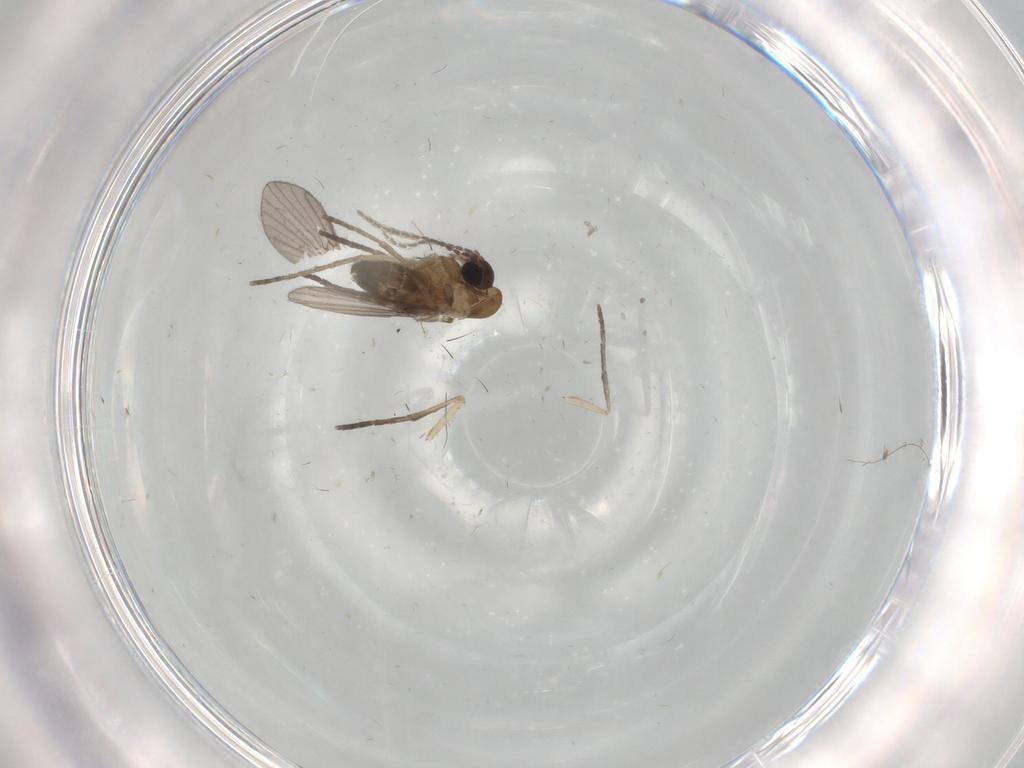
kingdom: Animalia
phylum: Arthropoda
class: Insecta
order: Diptera
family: Psychodidae
